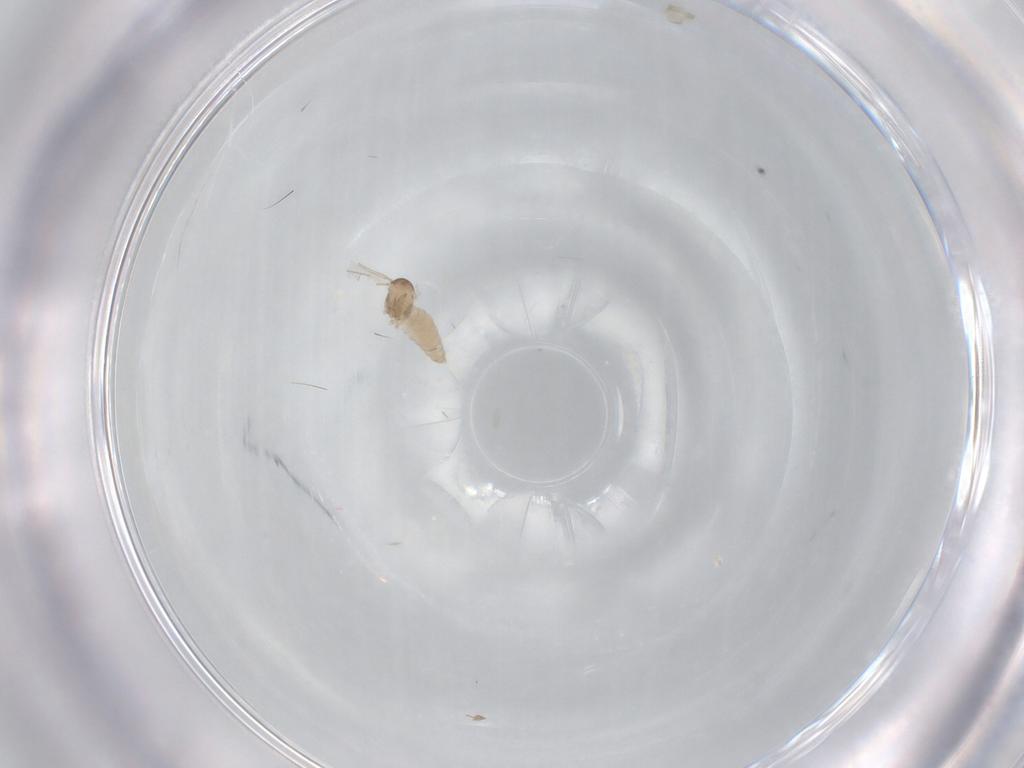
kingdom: Animalia
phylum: Arthropoda
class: Insecta
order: Diptera
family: Cecidomyiidae
